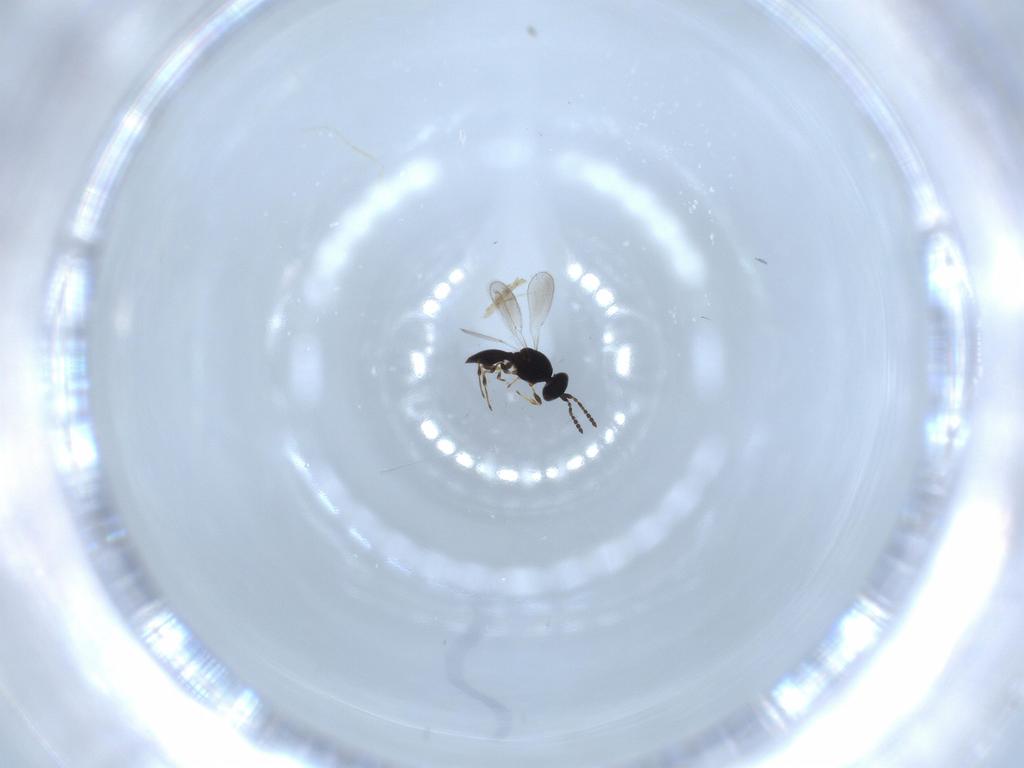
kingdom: Animalia
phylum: Arthropoda
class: Insecta
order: Hymenoptera
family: Platygastridae
